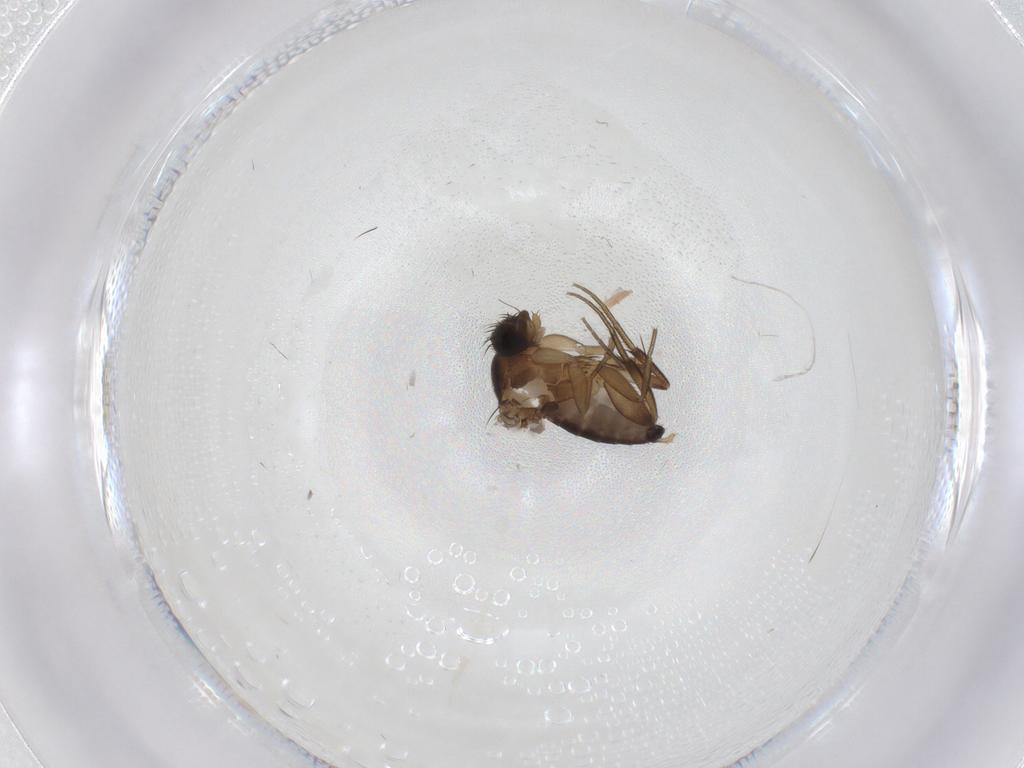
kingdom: Animalia
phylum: Arthropoda
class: Insecta
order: Diptera
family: Phoridae
